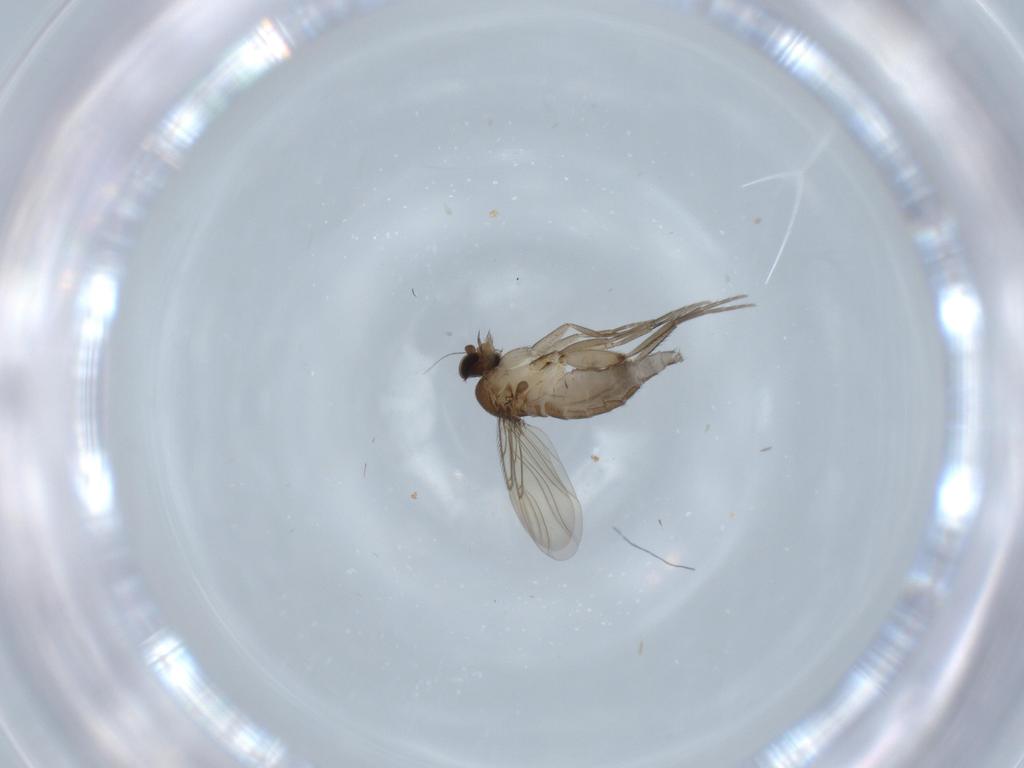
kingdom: Animalia
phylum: Arthropoda
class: Insecta
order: Diptera
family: Phoridae
